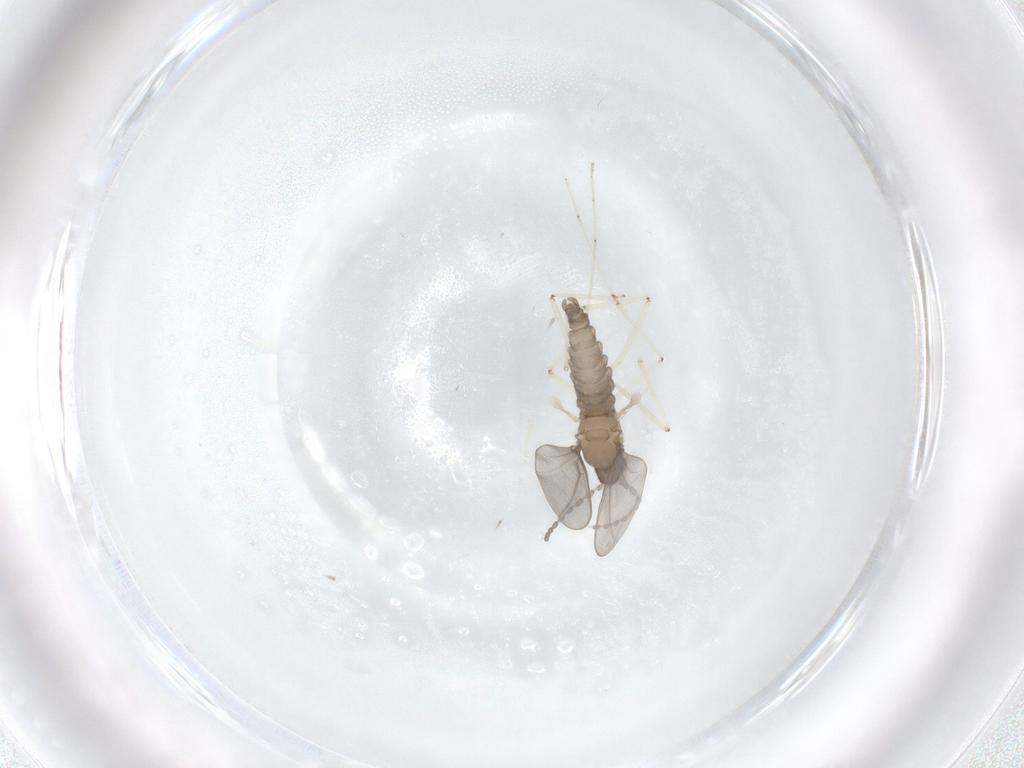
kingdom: Animalia
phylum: Arthropoda
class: Insecta
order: Diptera
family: Cecidomyiidae
